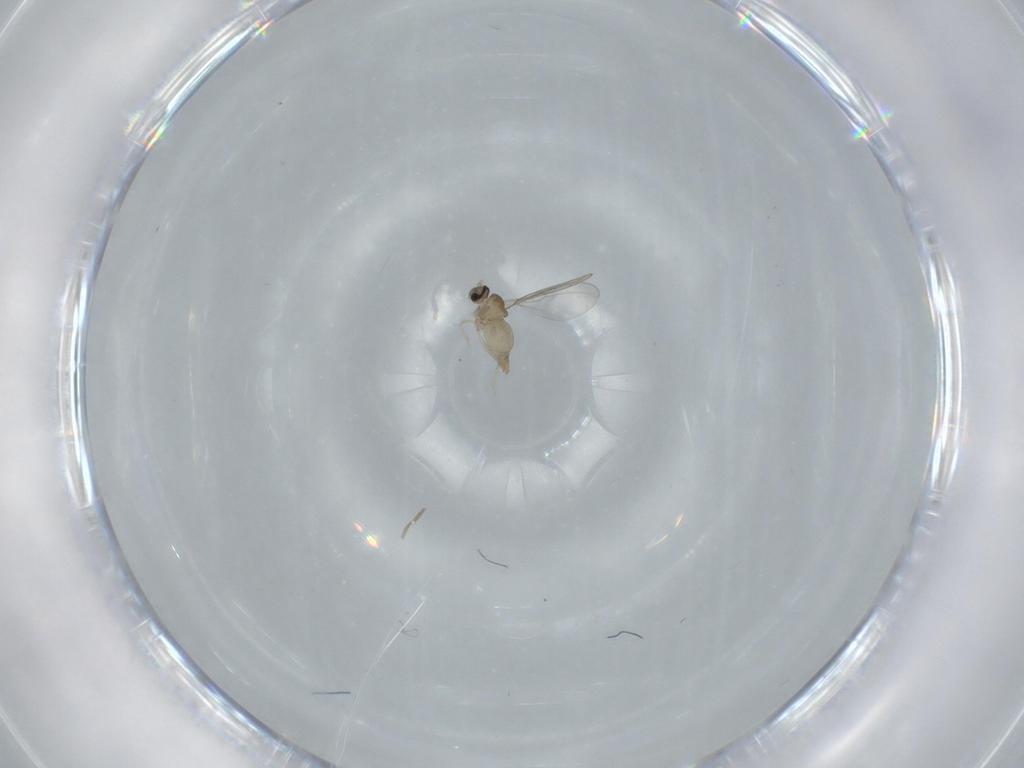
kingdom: Animalia
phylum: Arthropoda
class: Insecta
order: Diptera
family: Cecidomyiidae
